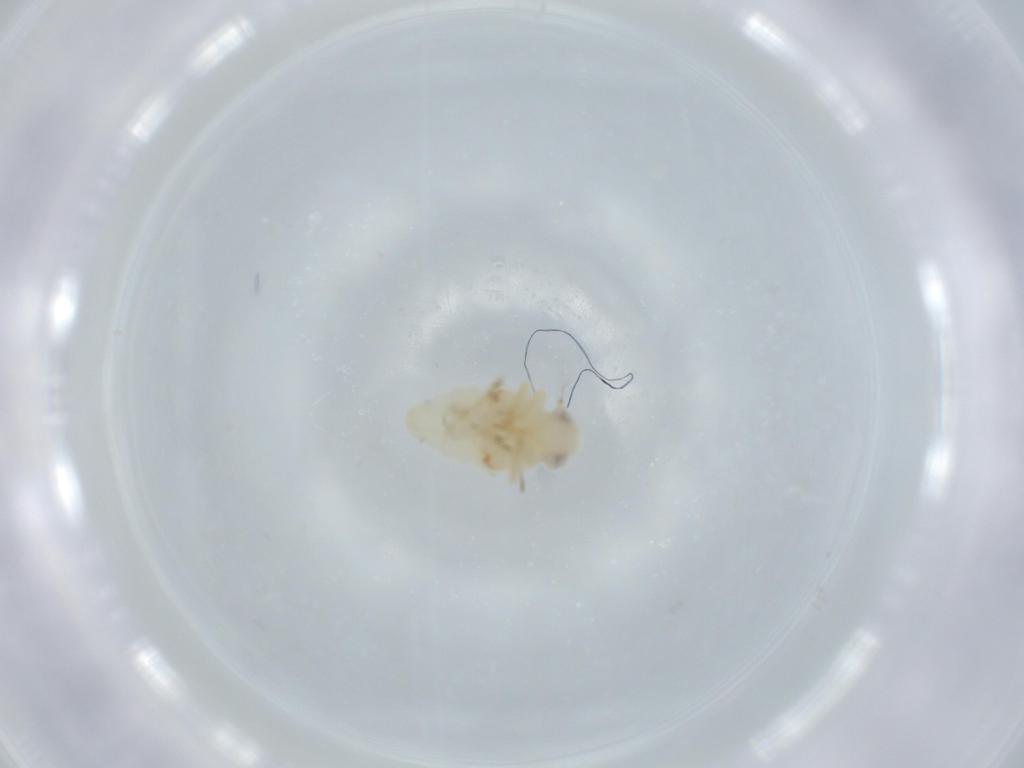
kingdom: Animalia
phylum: Arthropoda
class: Insecta
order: Hemiptera
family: Nogodinidae
